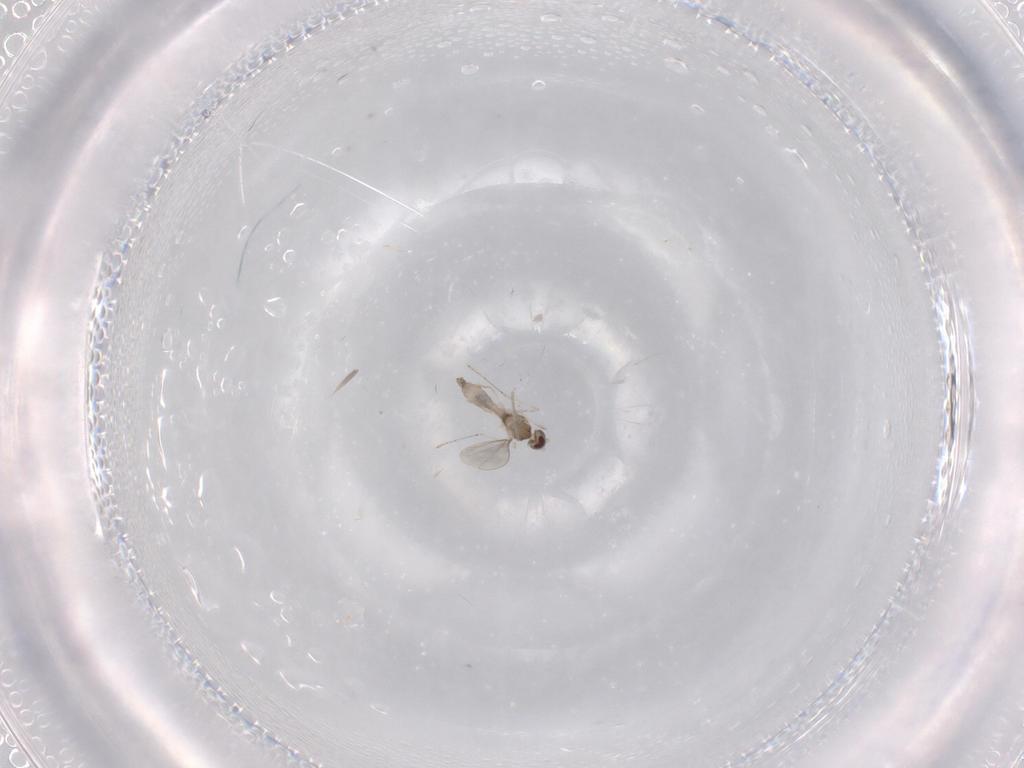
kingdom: Animalia
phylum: Arthropoda
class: Insecta
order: Diptera
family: Cecidomyiidae
